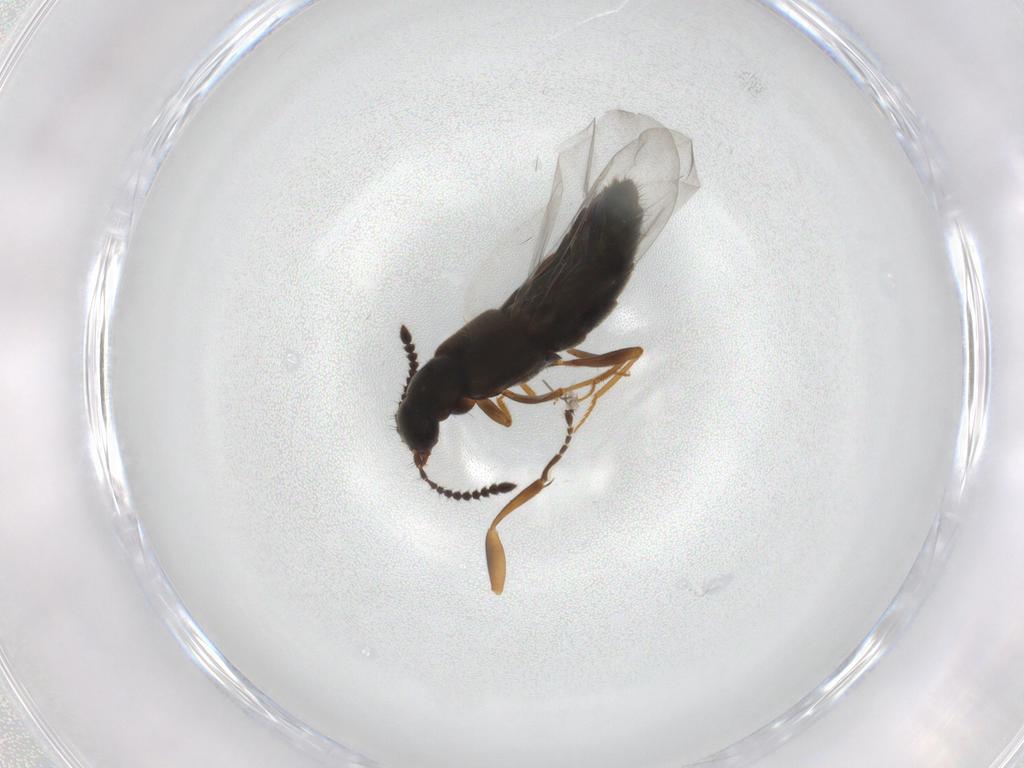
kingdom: Animalia
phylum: Arthropoda
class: Insecta
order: Coleoptera
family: Staphylinidae
